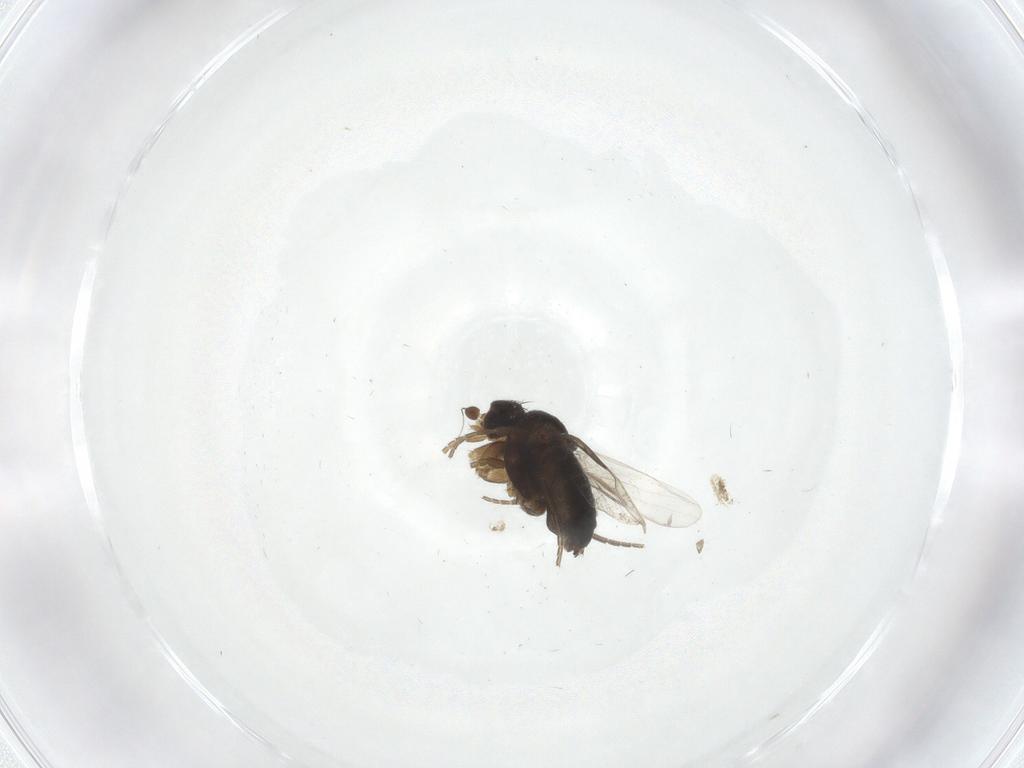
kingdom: Animalia
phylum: Arthropoda
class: Insecta
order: Diptera
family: Phoridae
